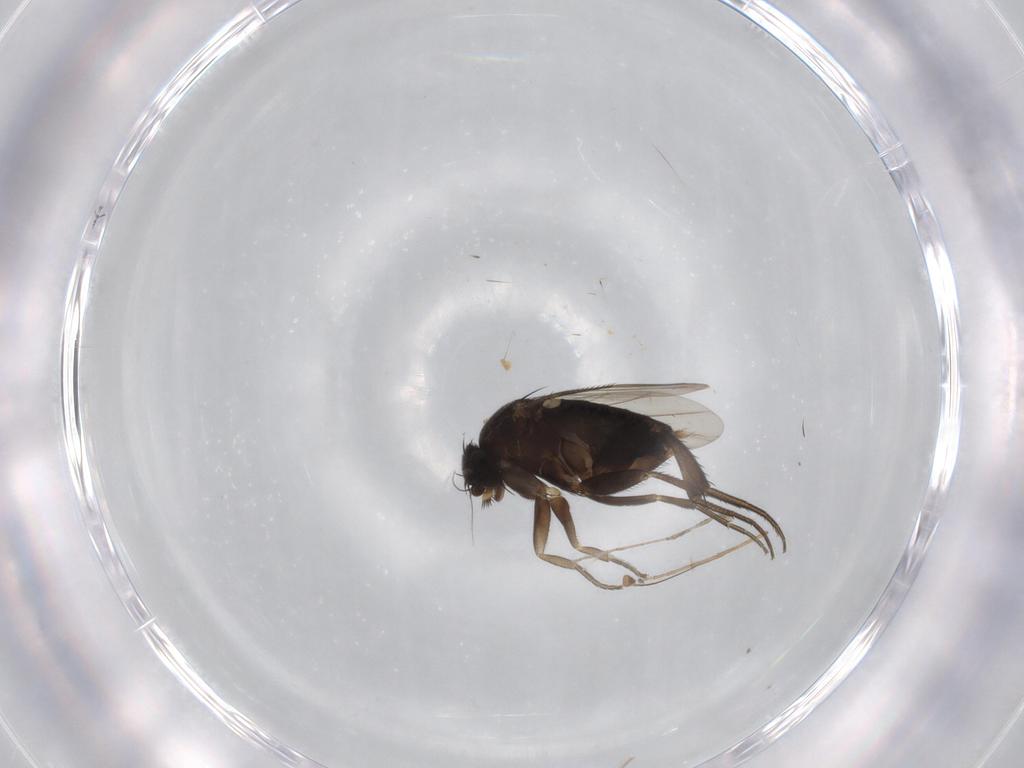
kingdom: Animalia
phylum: Arthropoda
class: Insecta
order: Diptera
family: Phoridae
